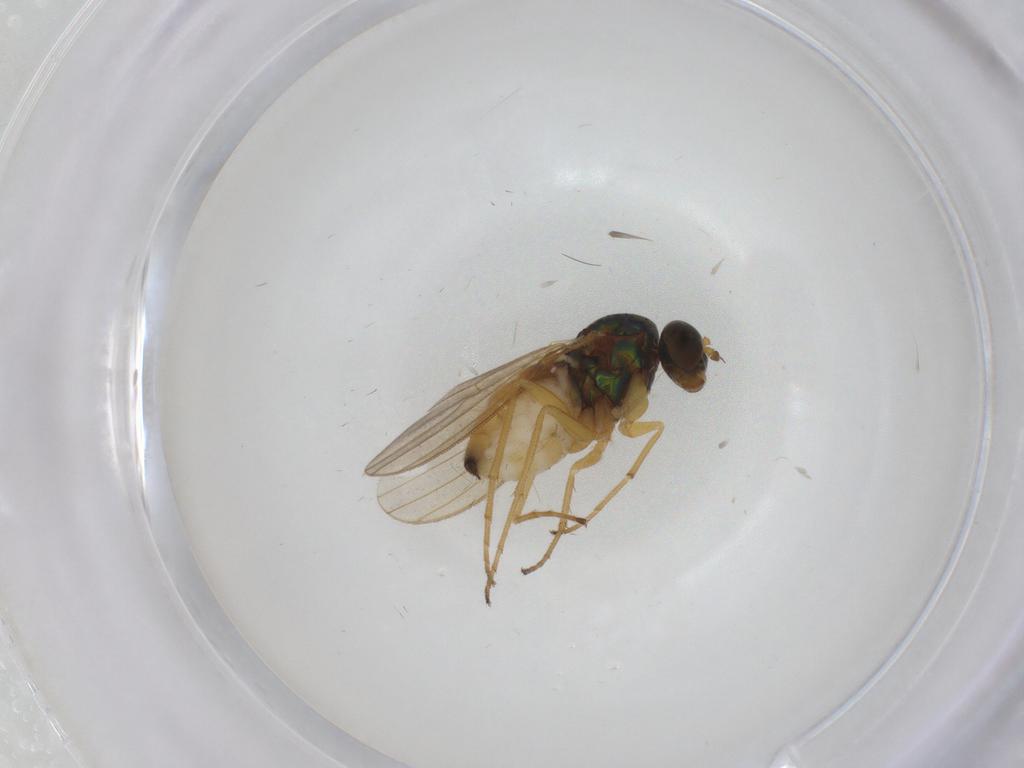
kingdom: Animalia
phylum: Arthropoda
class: Insecta
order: Diptera
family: Dolichopodidae
